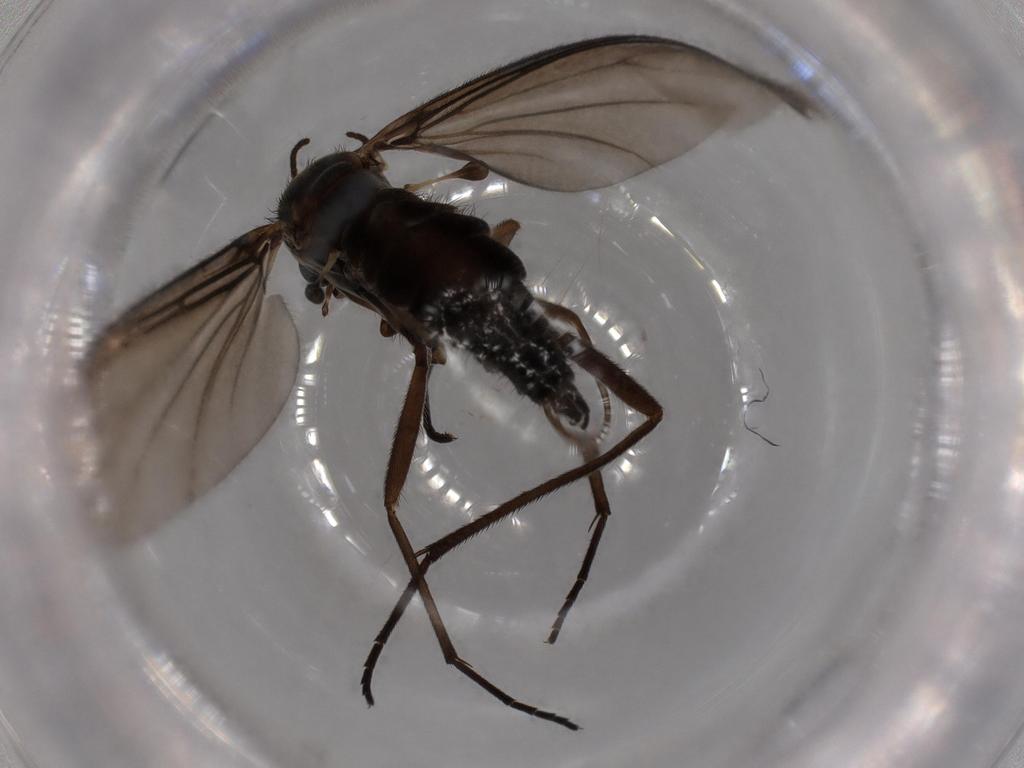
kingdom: Animalia
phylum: Arthropoda
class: Insecta
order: Diptera
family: Sciaridae
